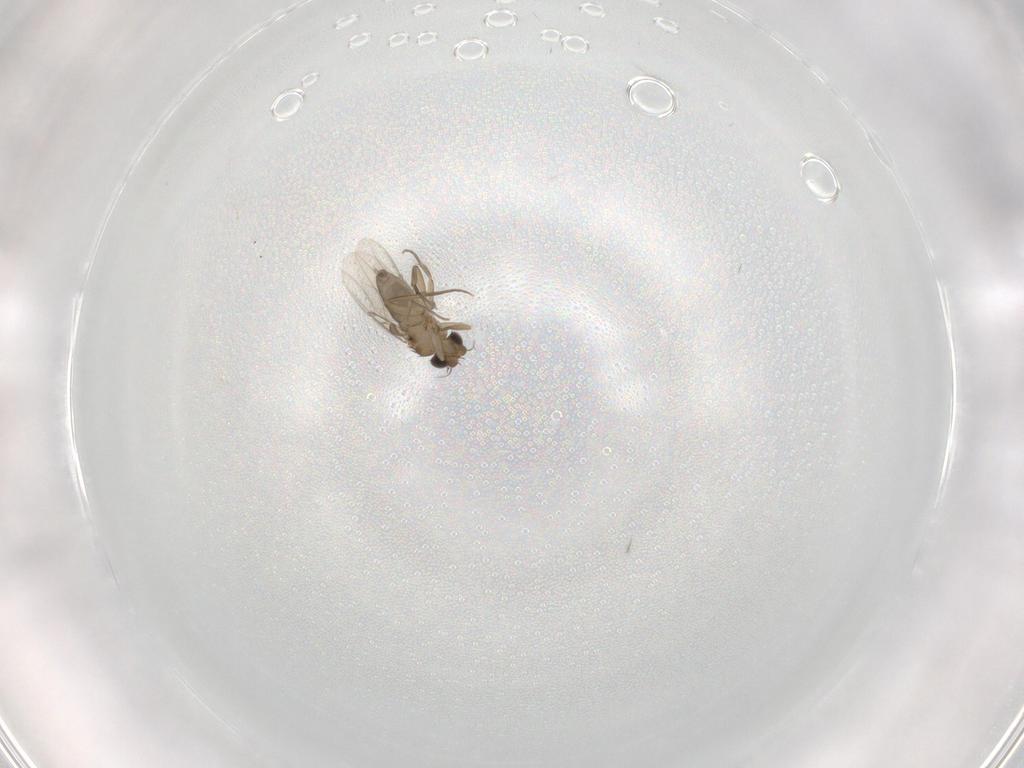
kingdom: Animalia
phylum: Arthropoda
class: Insecta
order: Diptera
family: Phoridae
